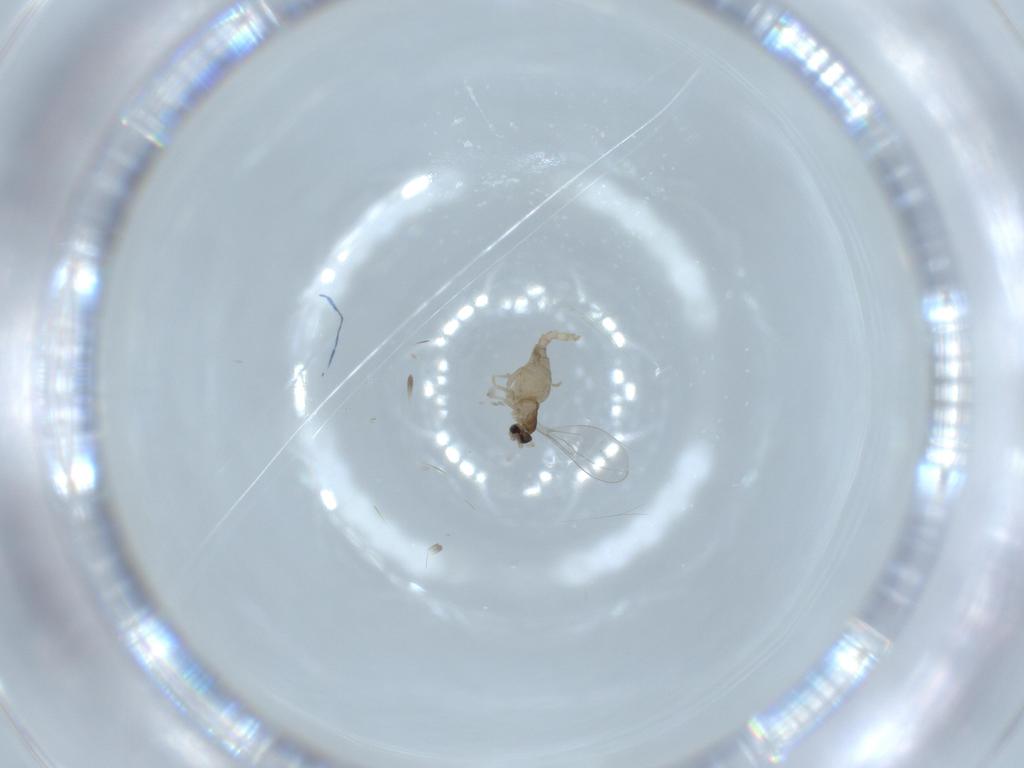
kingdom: Animalia
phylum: Arthropoda
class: Insecta
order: Diptera
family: Cecidomyiidae
